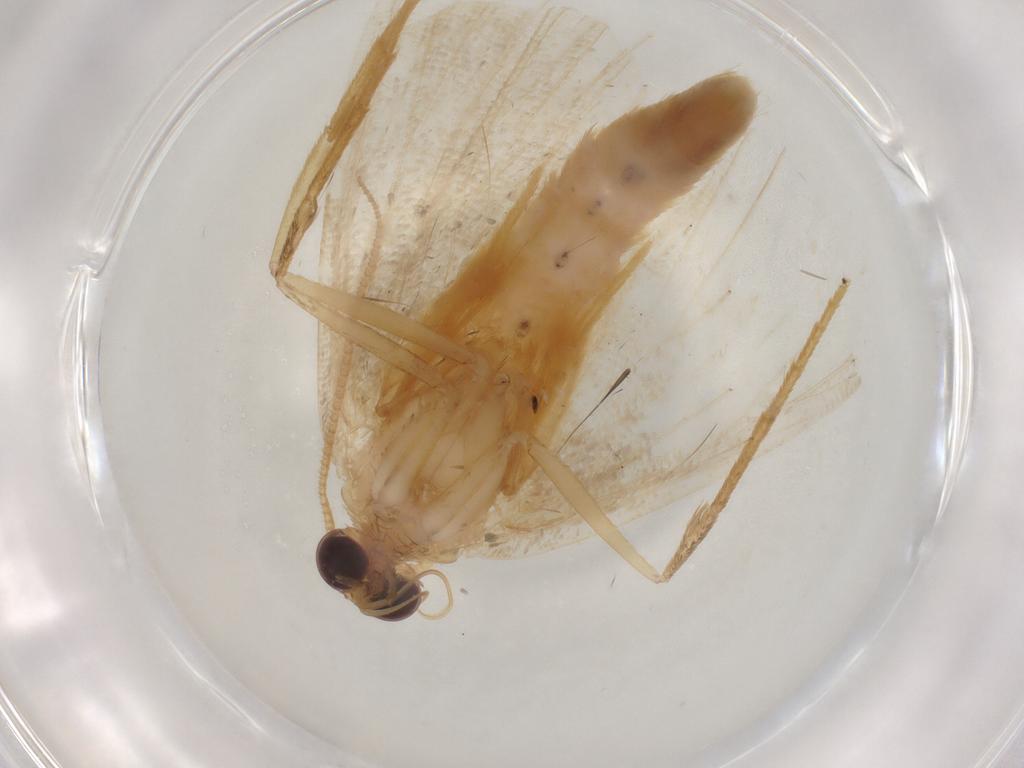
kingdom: Animalia
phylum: Arthropoda
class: Insecta
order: Lepidoptera
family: Geometridae
